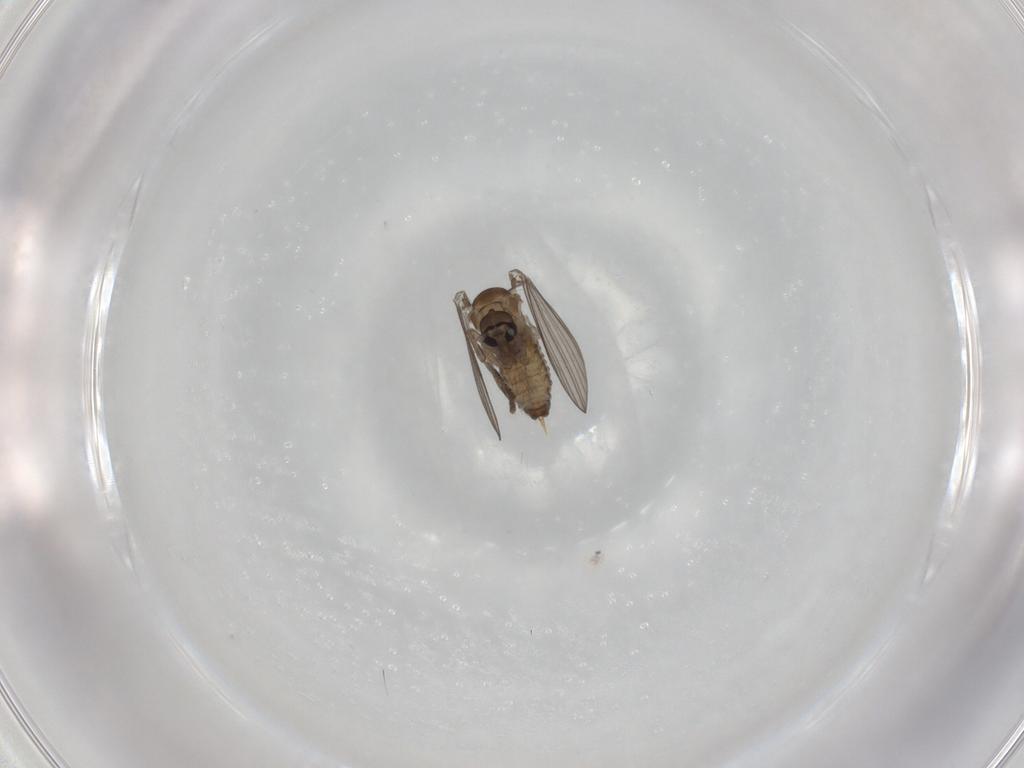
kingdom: Animalia
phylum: Arthropoda
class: Insecta
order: Diptera
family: Psychodidae
